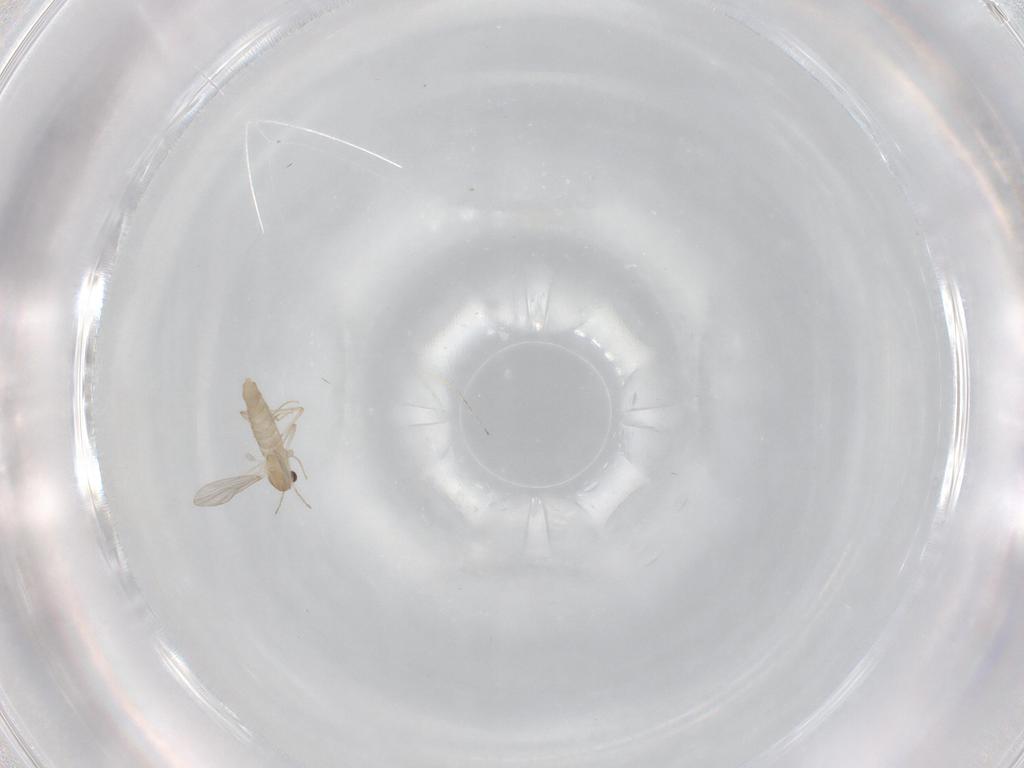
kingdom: Animalia
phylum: Arthropoda
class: Insecta
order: Diptera
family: Chironomidae
